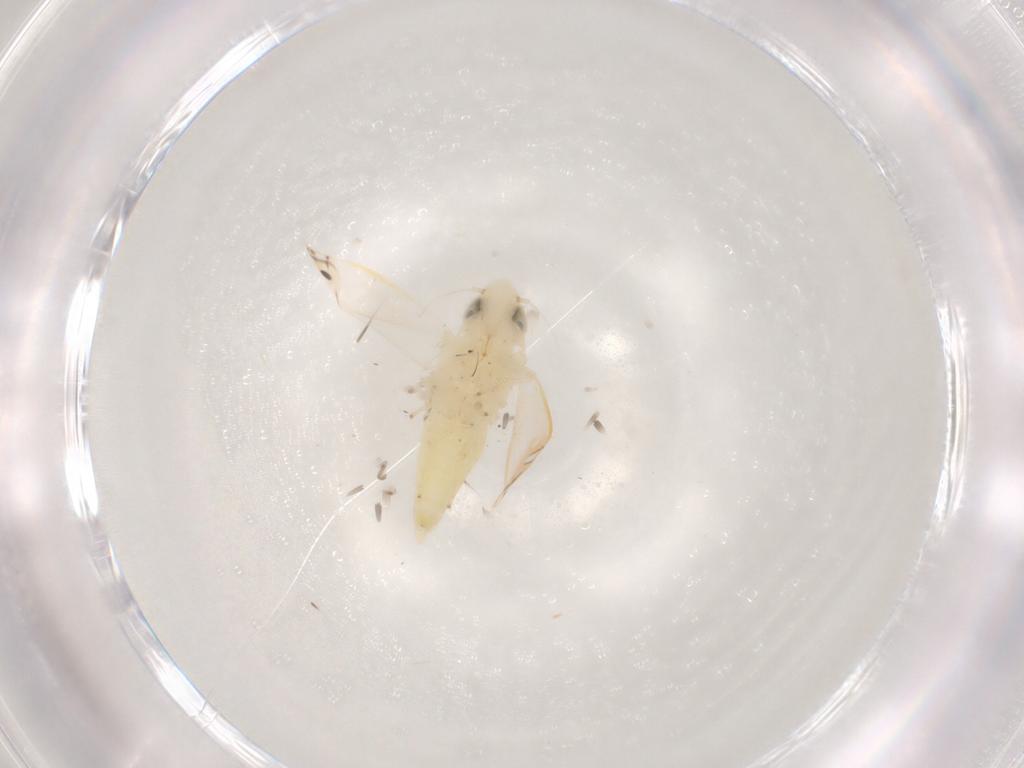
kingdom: Animalia
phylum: Arthropoda
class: Insecta
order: Hemiptera
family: Cicadellidae
